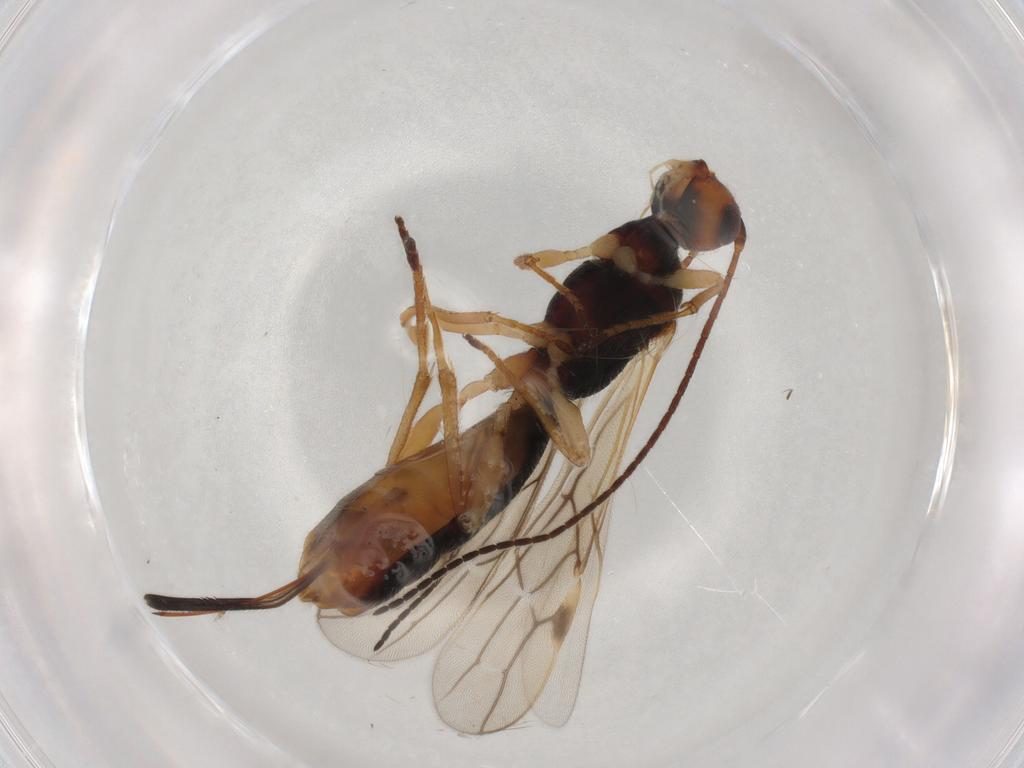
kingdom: Animalia
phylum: Arthropoda
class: Insecta
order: Hymenoptera
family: Braconidae
